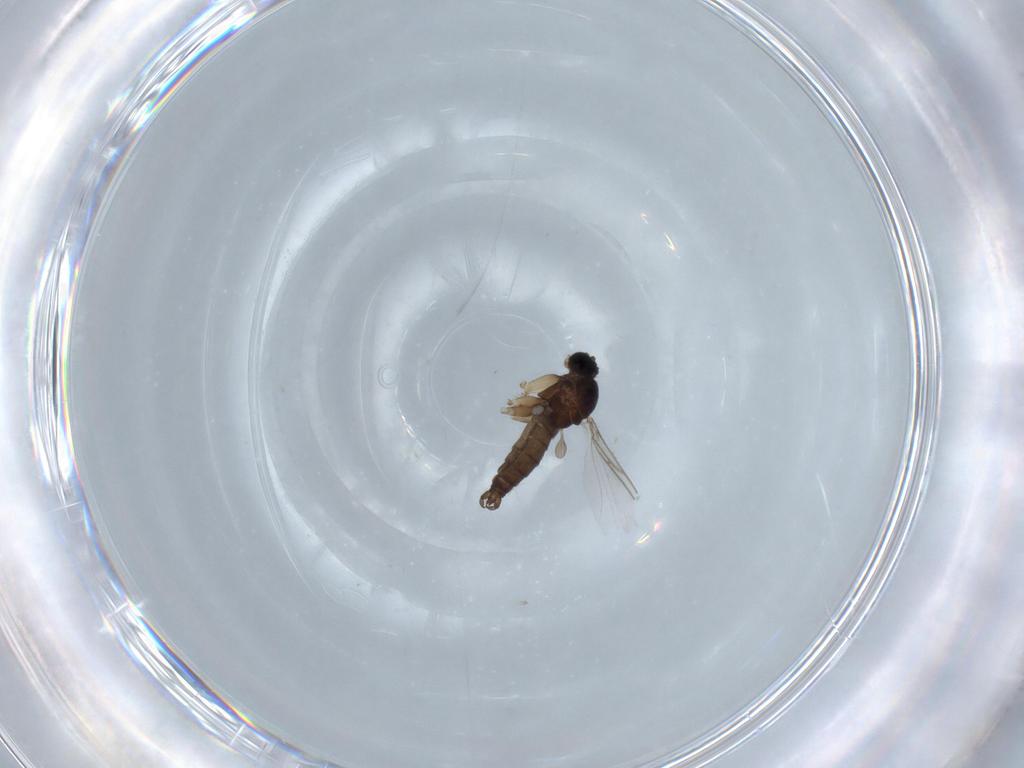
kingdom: Animalia
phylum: Arthropoda
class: Insecta
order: Diptera
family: Sciaridae
